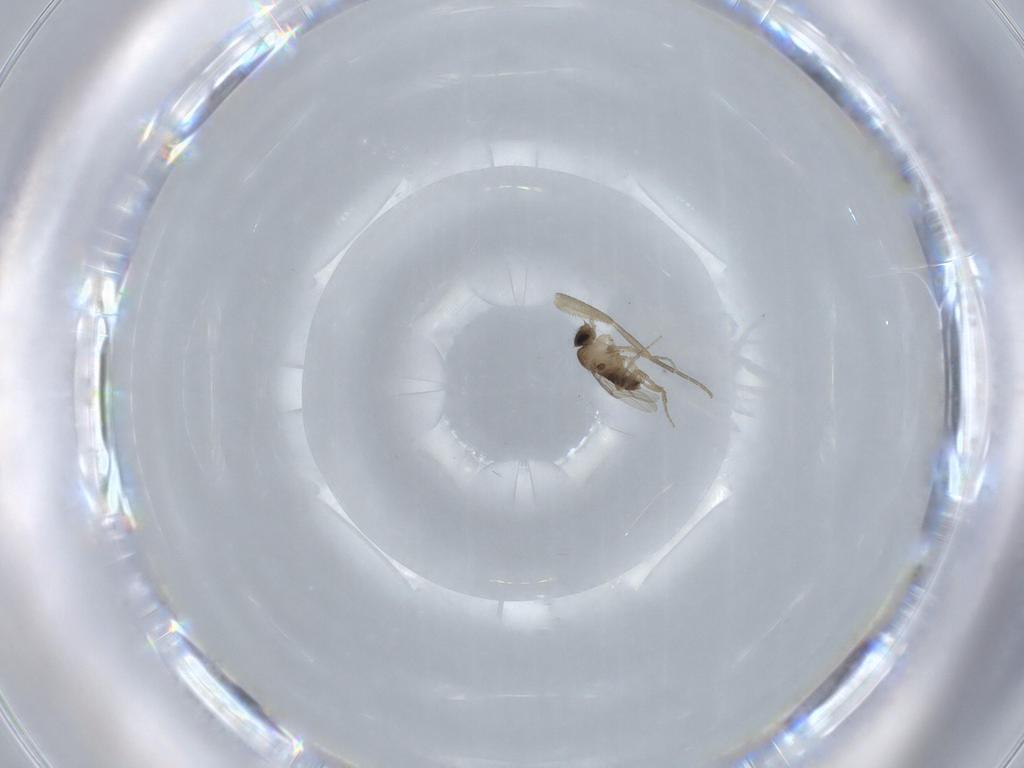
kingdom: Animalia
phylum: Arthropoda
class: Insecta
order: Diptera
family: Phoridae
